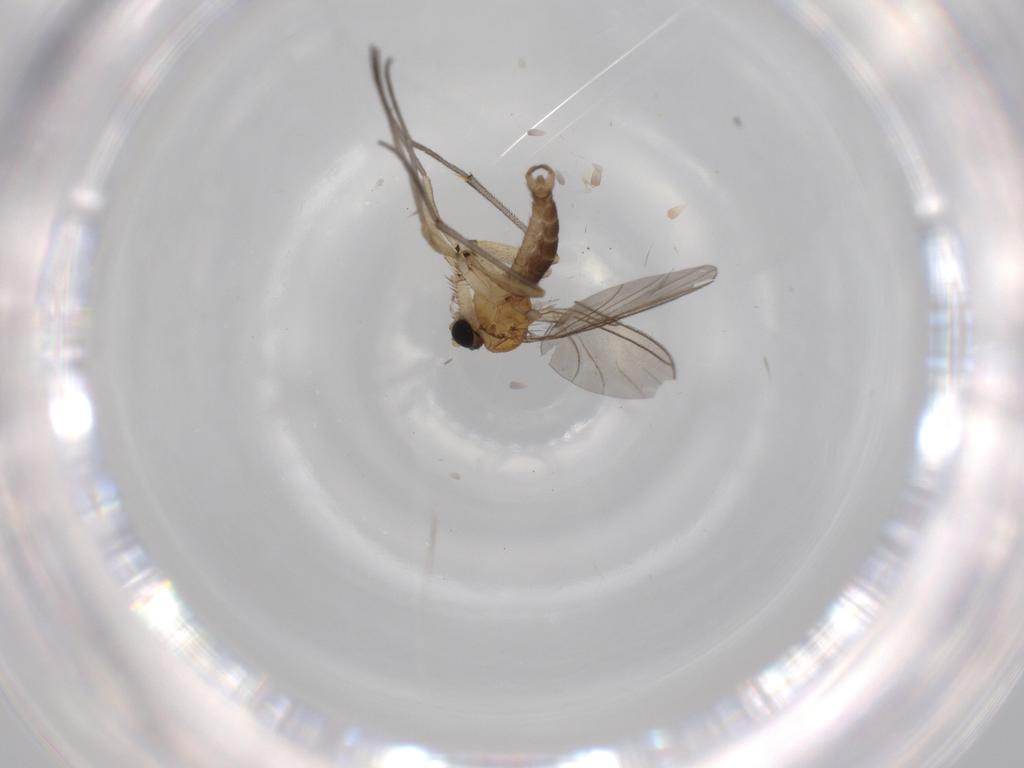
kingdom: Animalia
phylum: Arthropoda
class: Insecta
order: Diptera
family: Sciaridae
